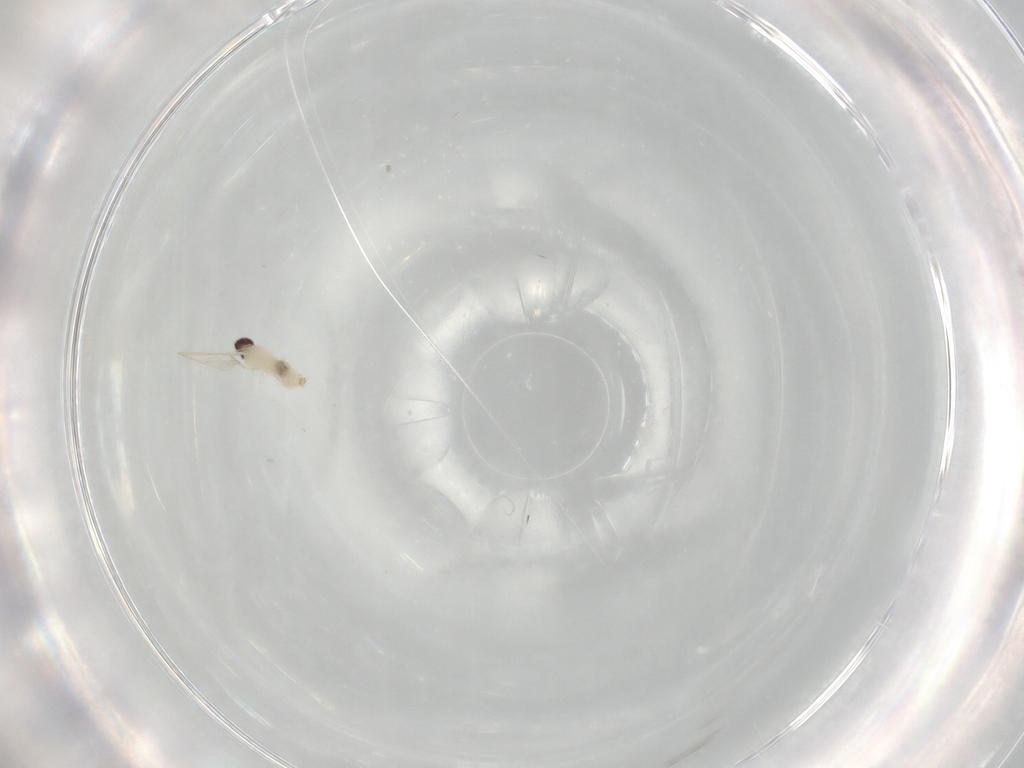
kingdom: Animalia
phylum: Arthropoda
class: Insecta
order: Diptera
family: Cecidomyiidae
